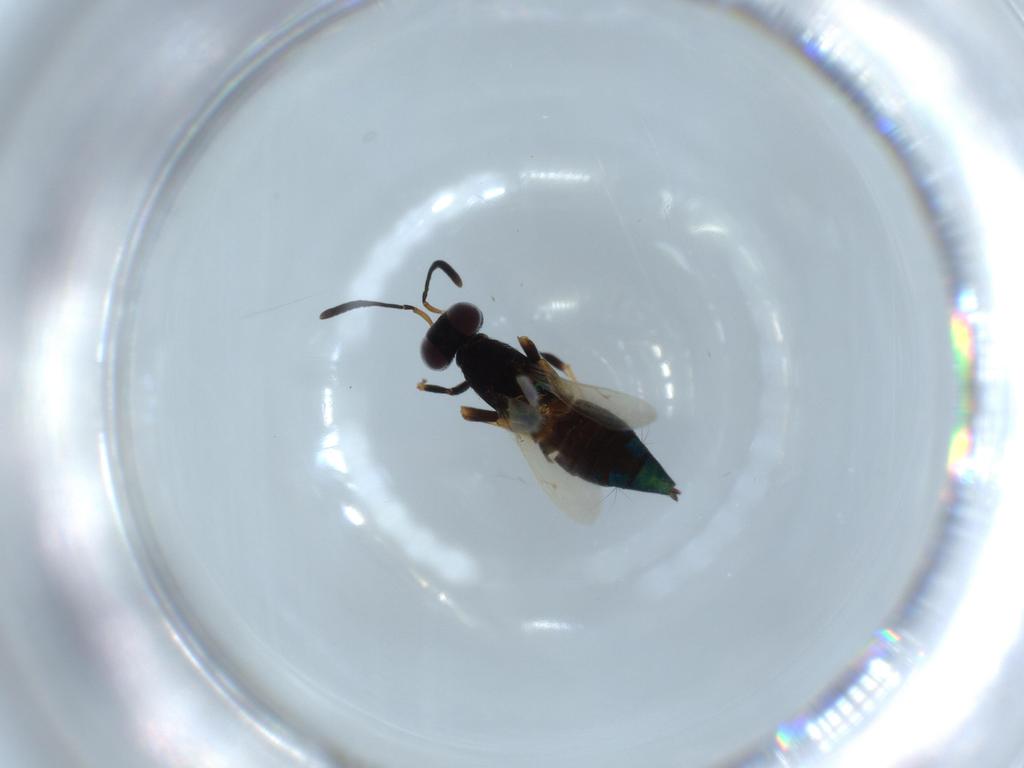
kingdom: Animalia
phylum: Arthropoda
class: Insecta
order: Hymenoptera
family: Eupelmidae
